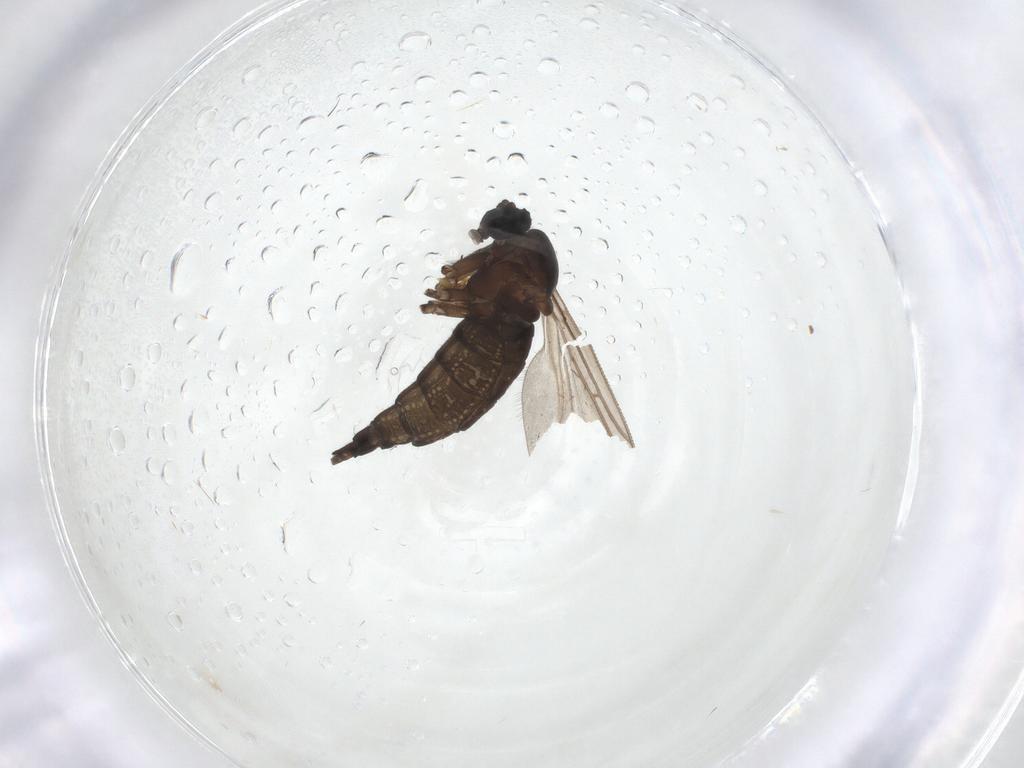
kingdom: Animalia
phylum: Arthropoda
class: Insecta
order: Diptera
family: Sciaridae
